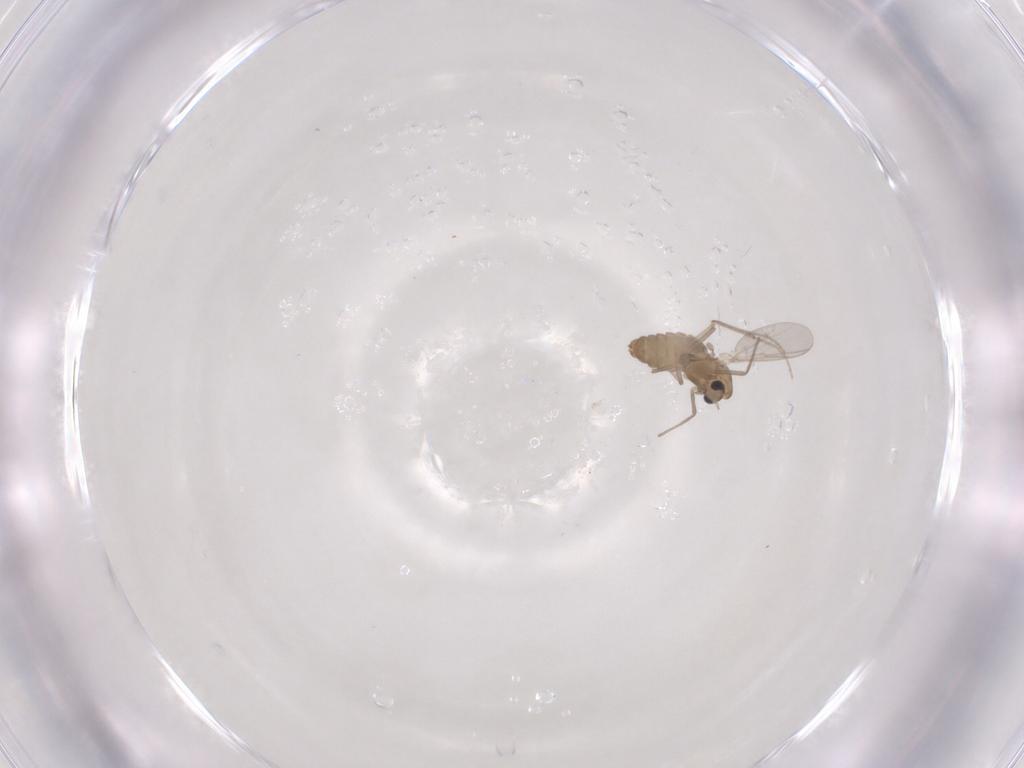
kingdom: Animalia
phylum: Arthropoda
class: Insecta
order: Diptera
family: Chironomidae
